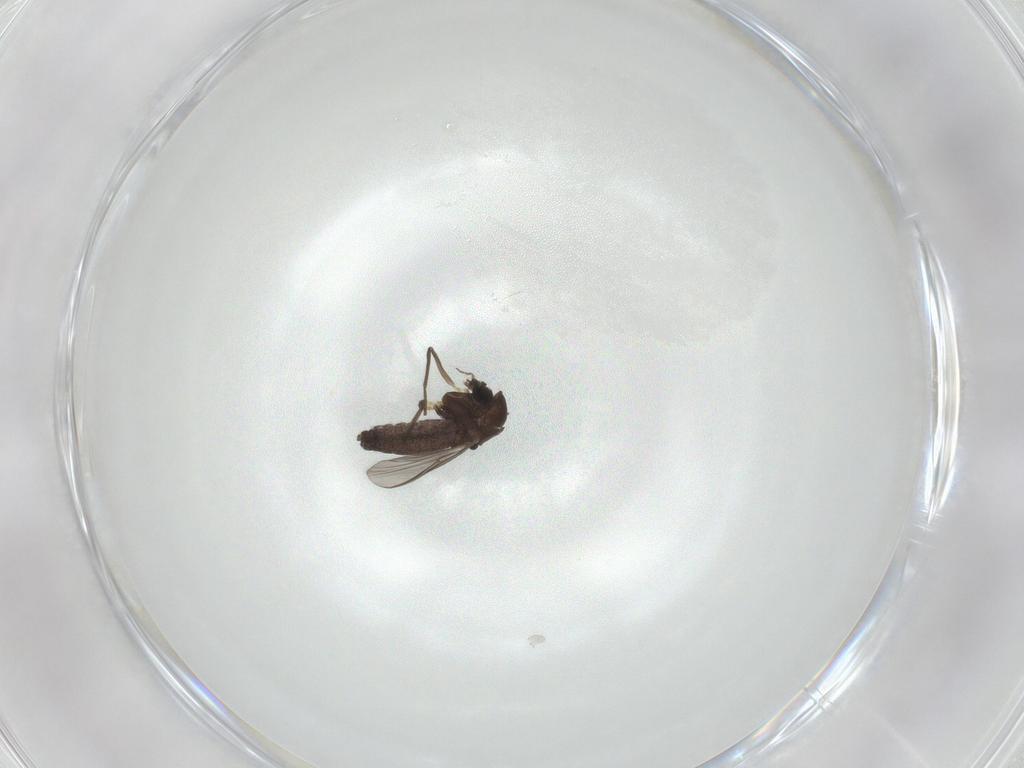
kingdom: Animalia
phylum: Arthropoda
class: Insecta
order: Diptera
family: Chironomidae
